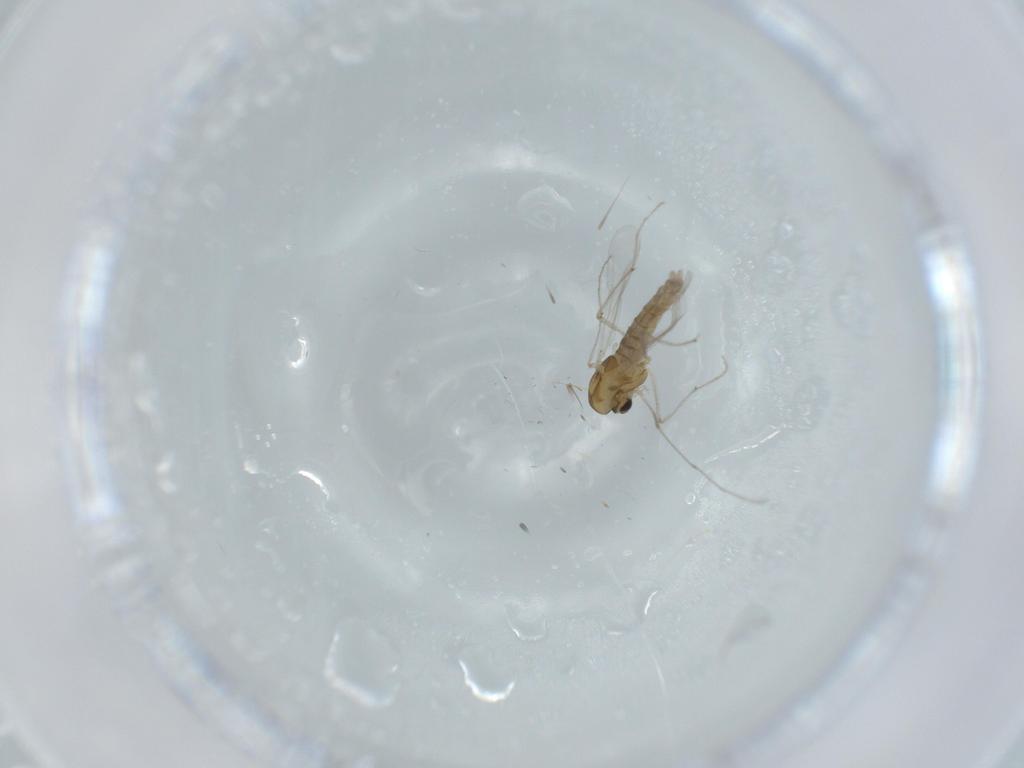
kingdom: Animalia
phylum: Arthropoda
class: Insecta
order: Diptera
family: Chironomidae
